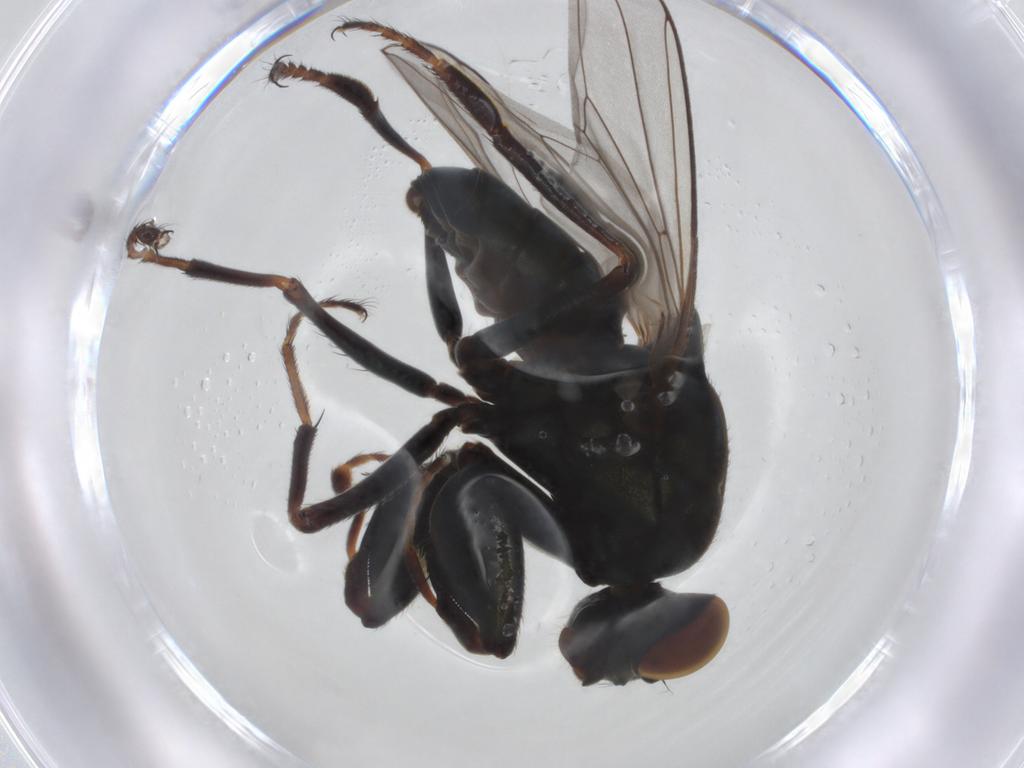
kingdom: Animalia
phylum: Arthropoda
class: Insecta
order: Diptera
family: Ephydridae
